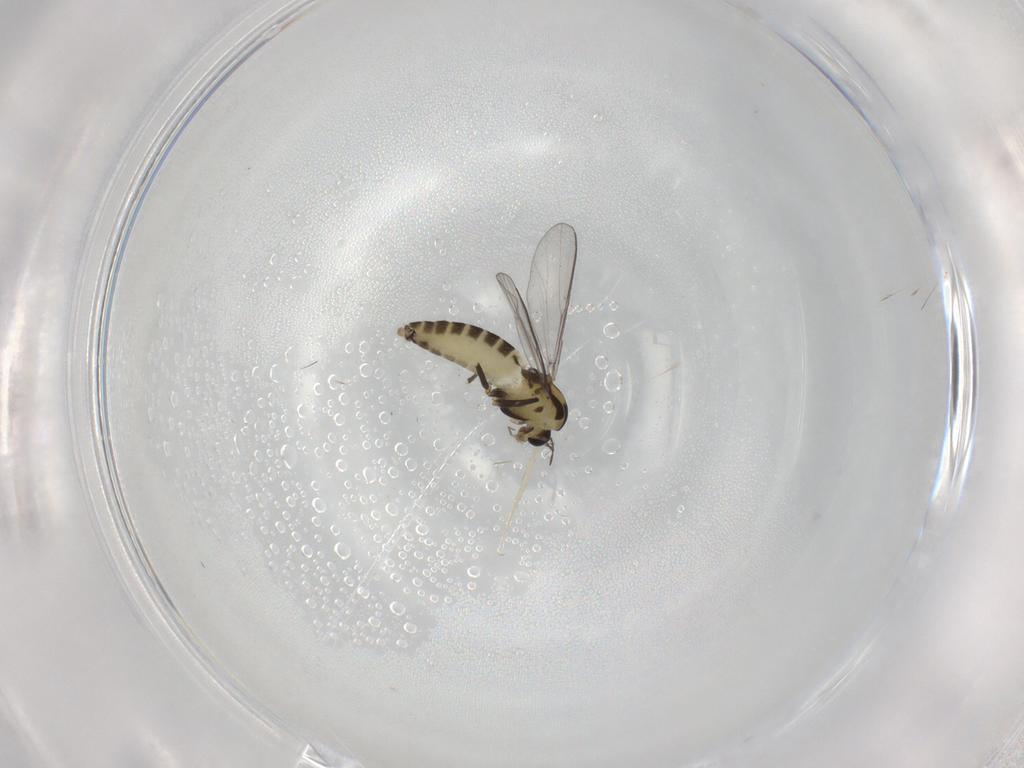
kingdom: Animalia
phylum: Arthropoda
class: Insecta
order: Diptera
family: Chironomidae
